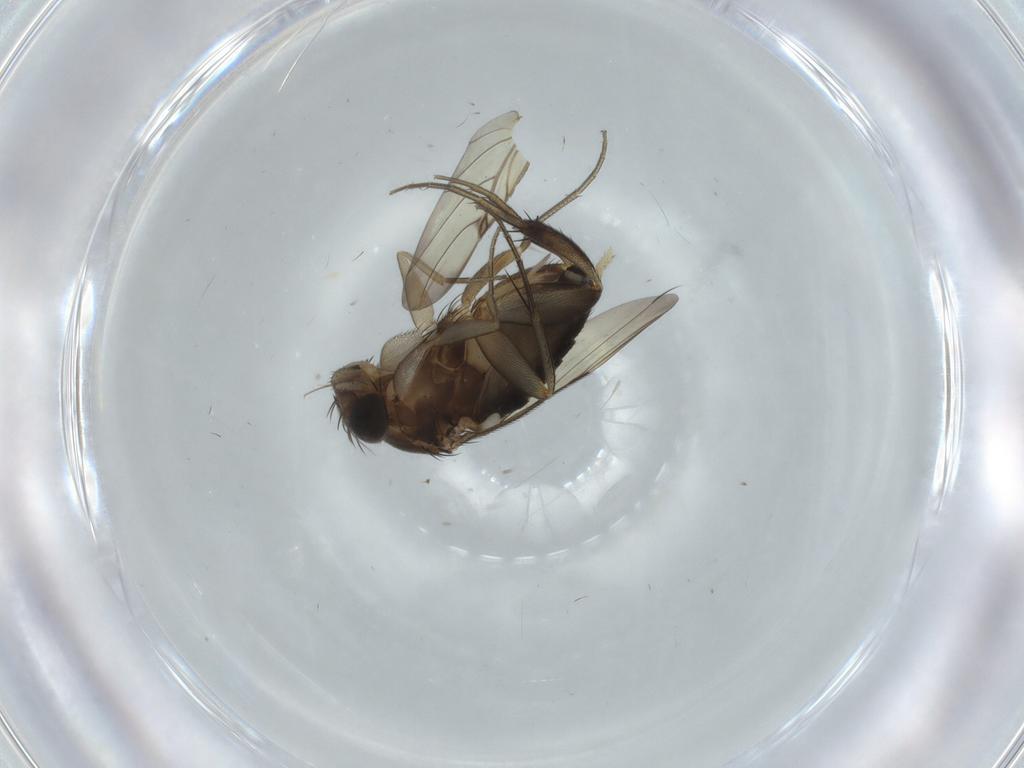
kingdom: Animalia
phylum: Arthropoda
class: Insecta
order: Diptera
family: Phoridae
